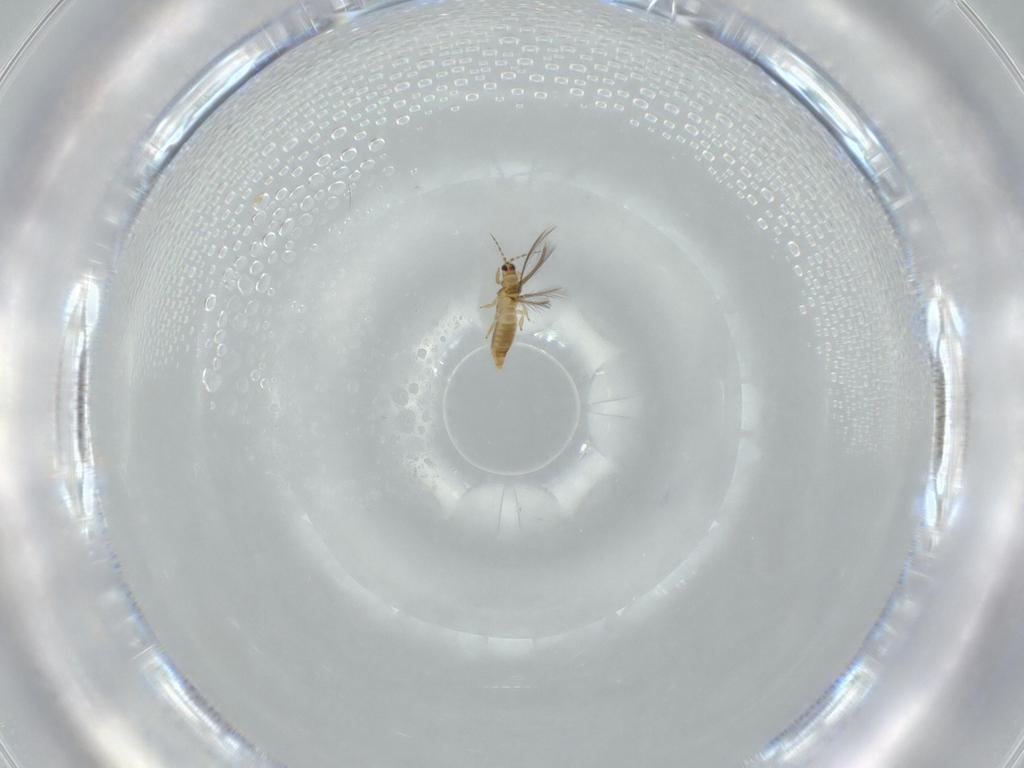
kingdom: Animalia
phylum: Arthropoda
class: Insecta
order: Thysanoptera
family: Thripidae
